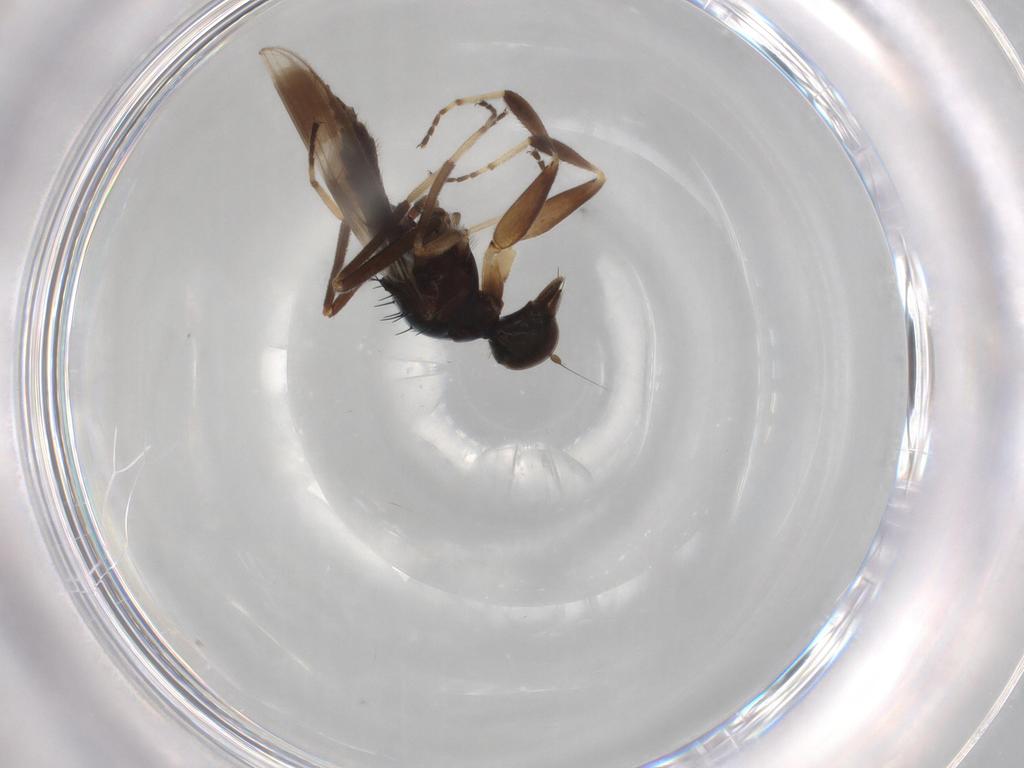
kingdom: Animalia
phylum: Arthropoda
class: Insecta
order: Diptera
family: Hybotidae
